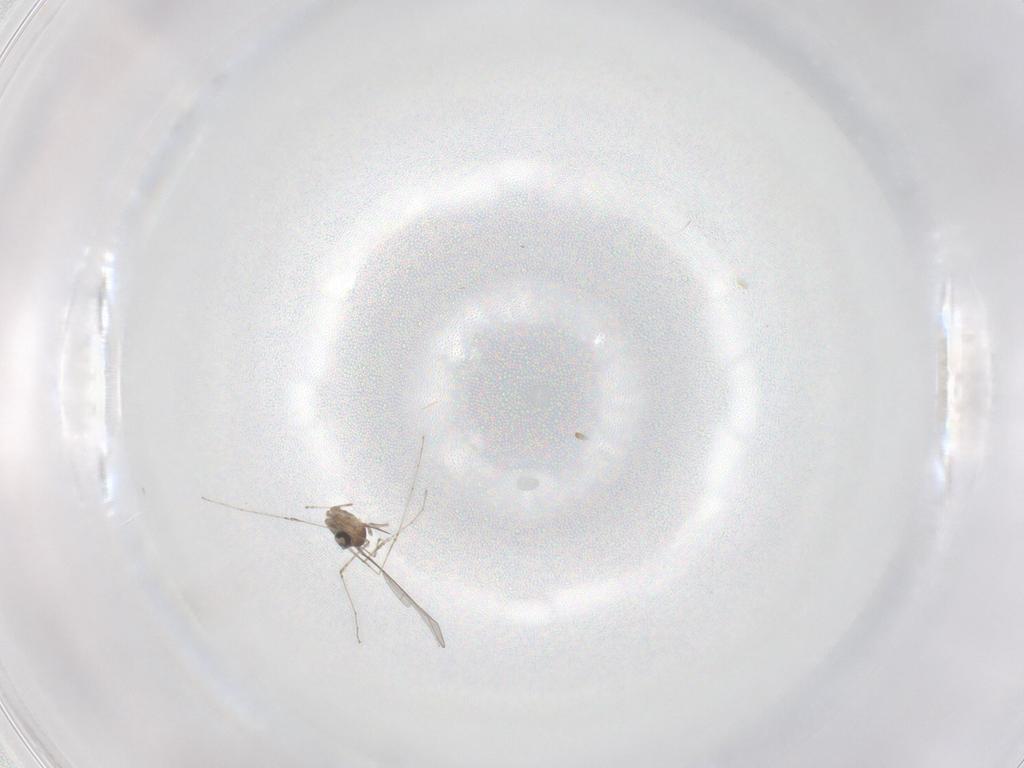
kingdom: Animalia
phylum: Arthropoda
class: Insecta
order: Diptera
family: Cecidomyiidae
